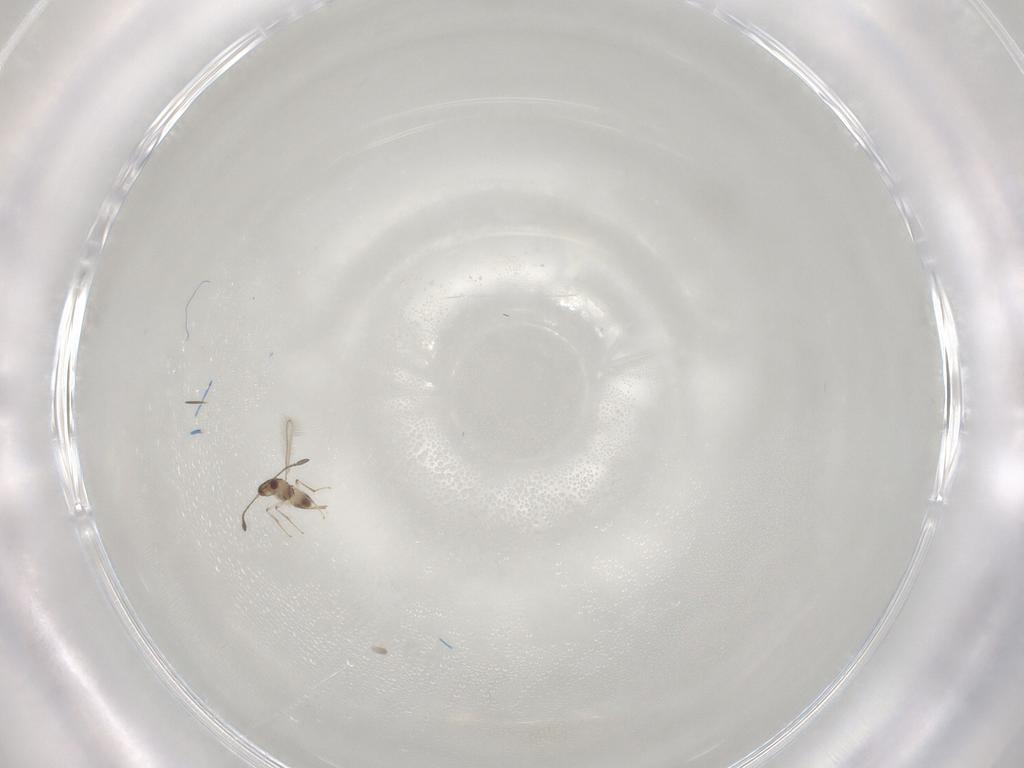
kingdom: Animalia
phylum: Arthropoda
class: Insecta
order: Hymenoptera
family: Mymaridae
